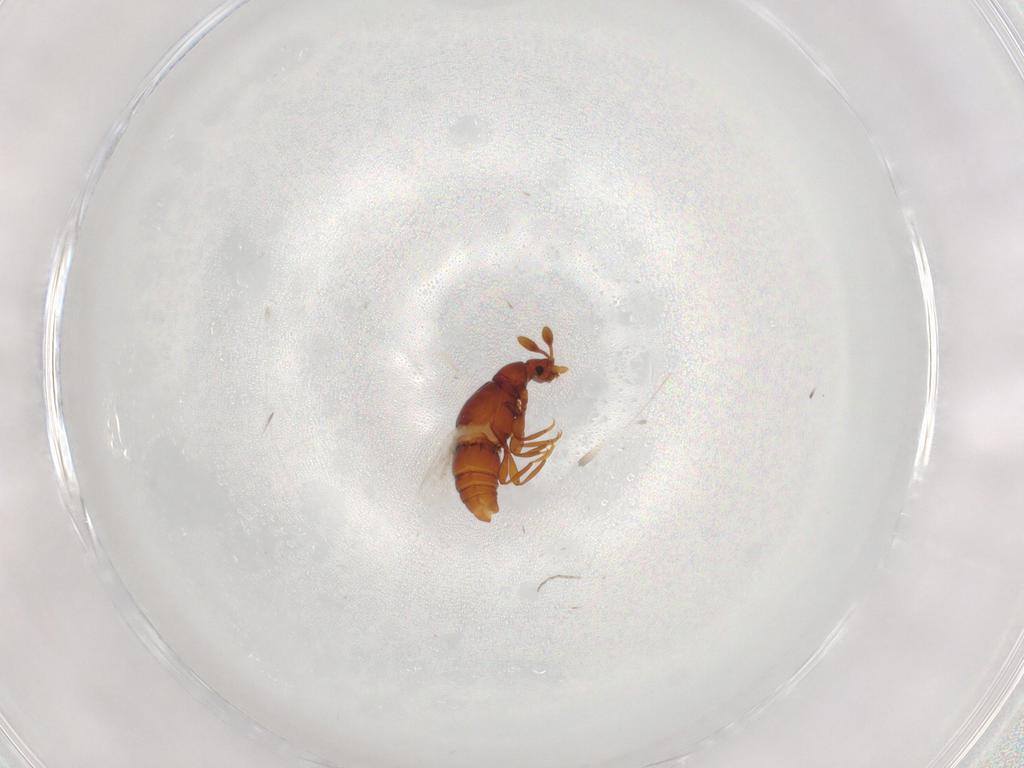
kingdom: Animalia
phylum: Arthropoda
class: Insecta
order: Coleoptera
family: Staphylinidae
